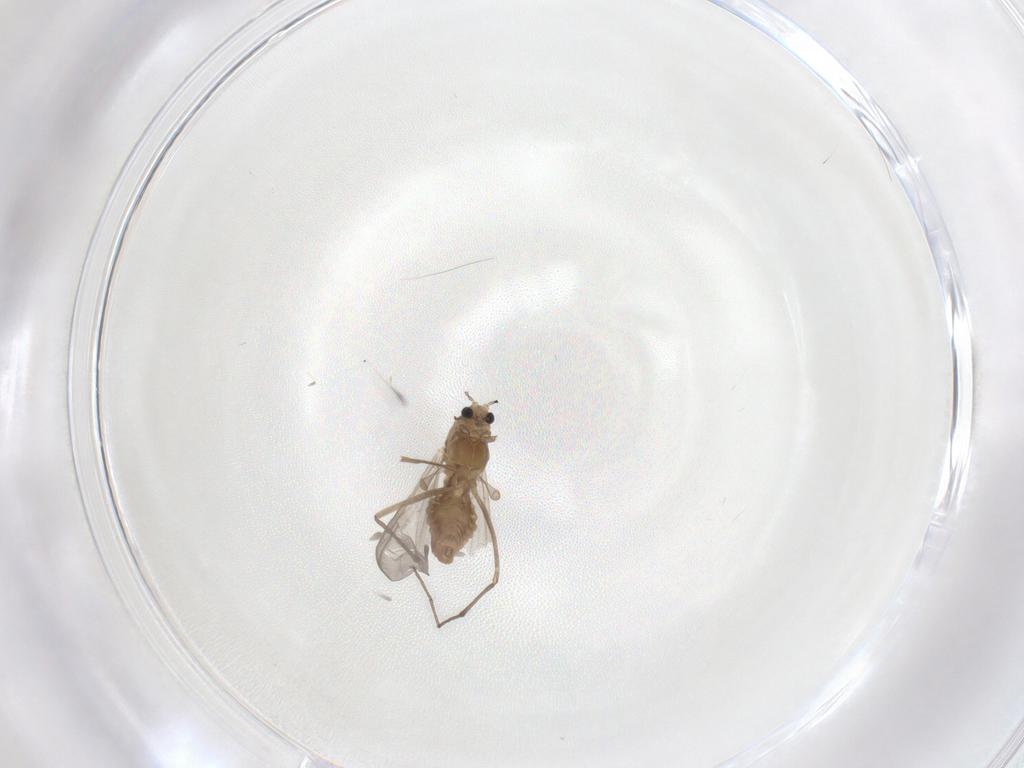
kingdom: Animalia
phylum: Arthropoda
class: Insecta
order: Diptera
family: Chironomidae
